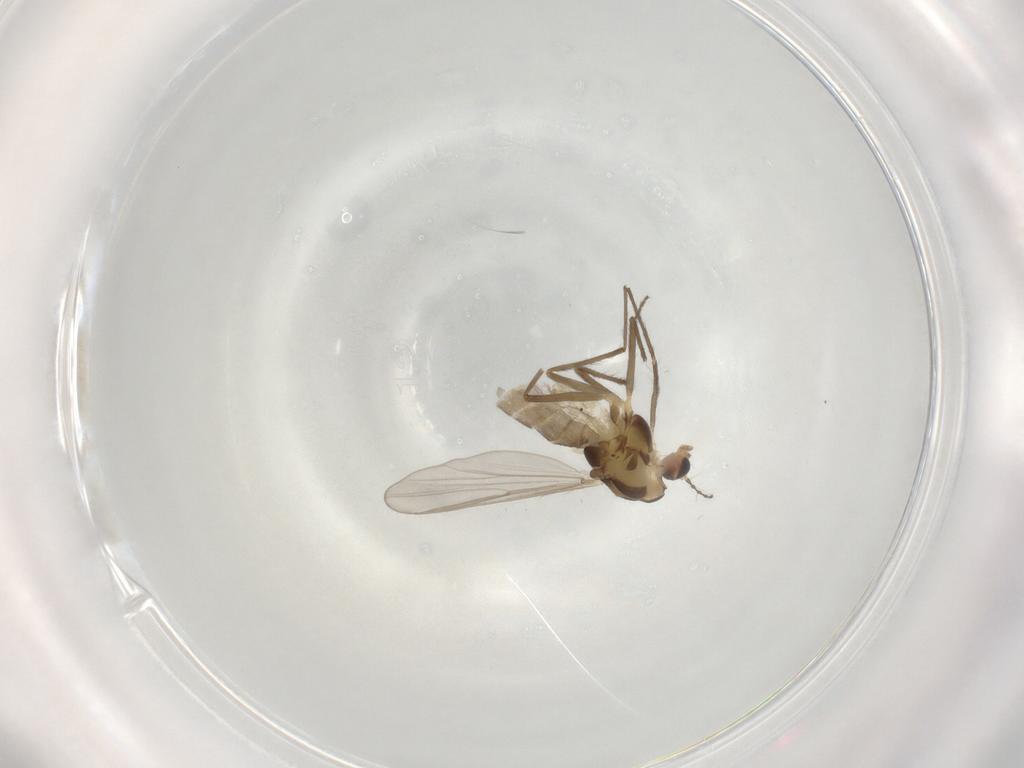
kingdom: Animalia
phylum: Arthropoda
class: Insecta
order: Diptera
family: Chironomidae
